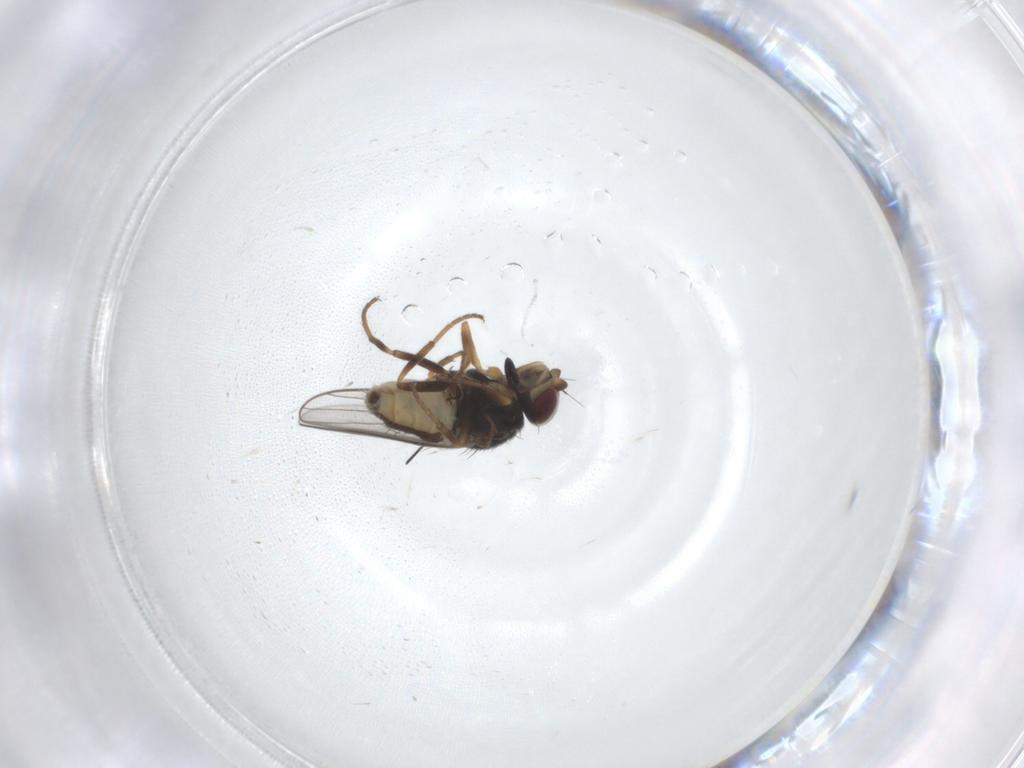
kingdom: Animalia
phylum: Arthropoda
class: Insecta
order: Diptera
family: Chloropidae
